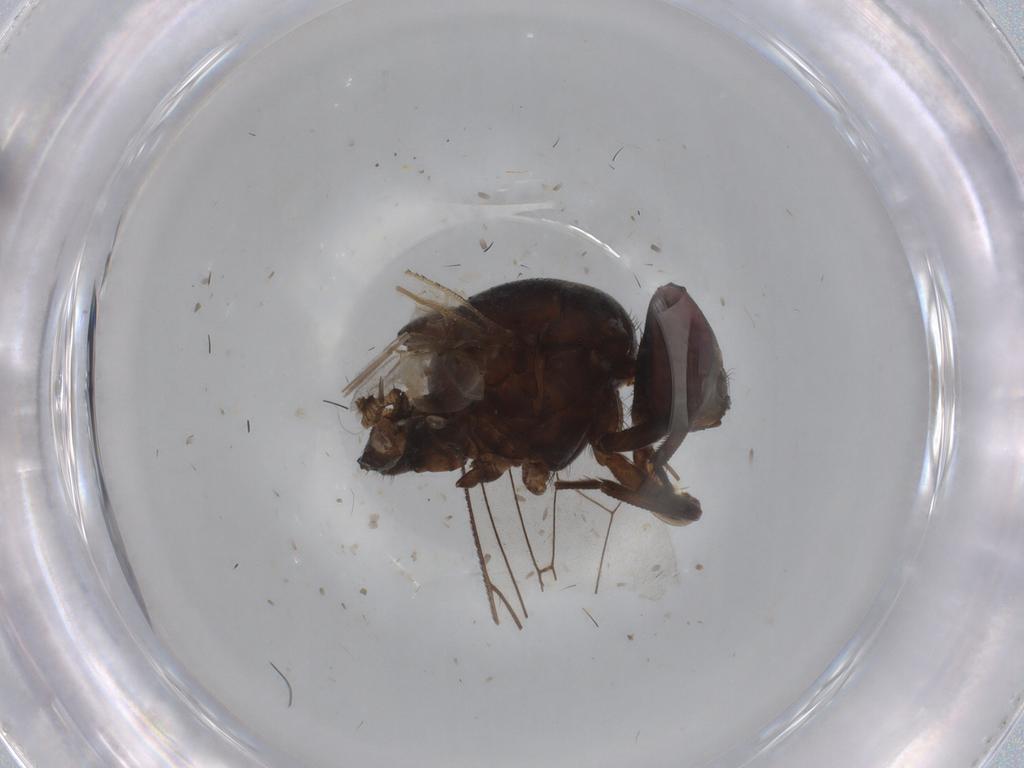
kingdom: Animalia
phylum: Arthropoda
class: Insecta
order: Diptera
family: Muscidae
